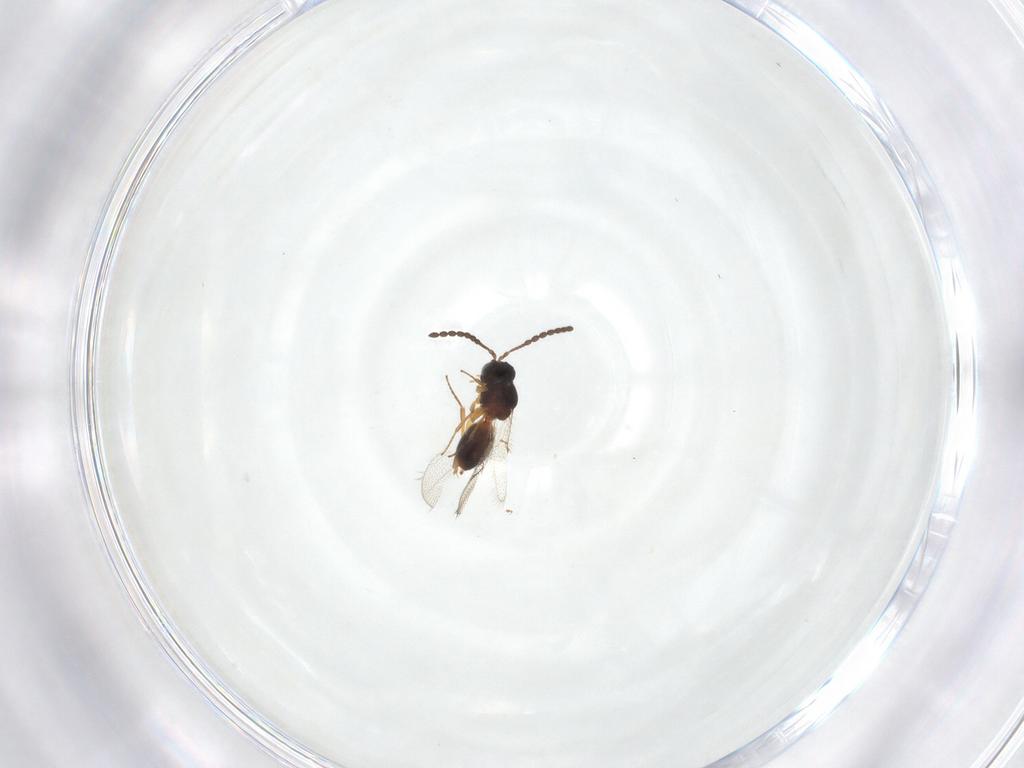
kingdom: Animalia
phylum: Arthropoda
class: Insecta
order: Hymenoptera
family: Figitidae
